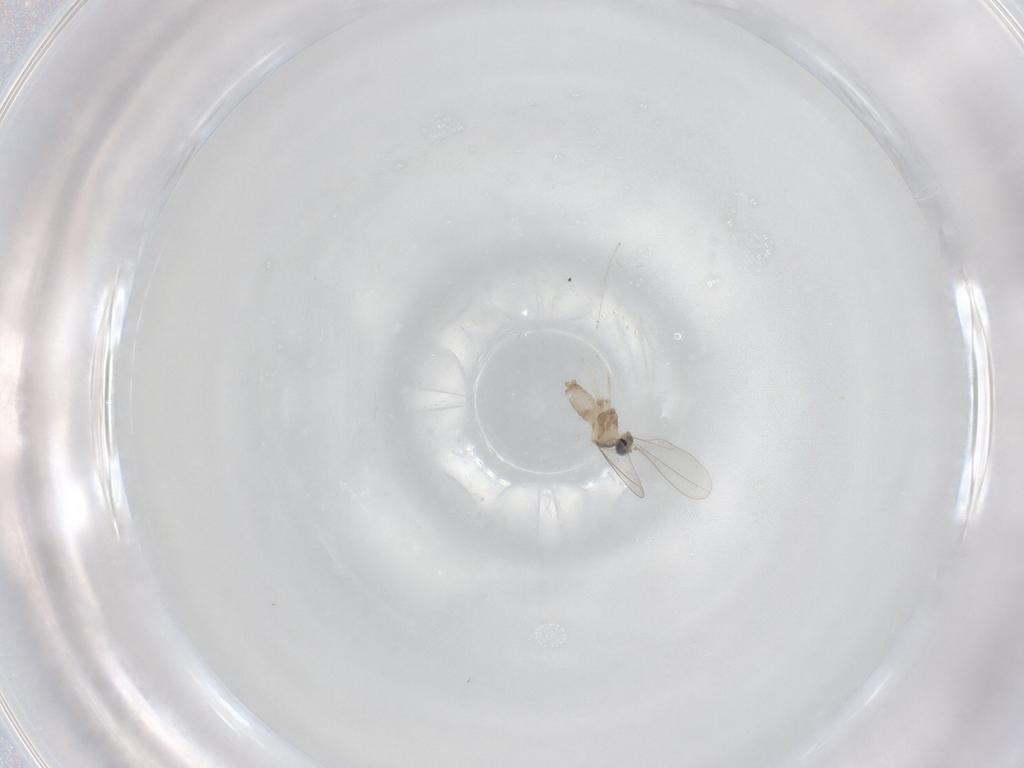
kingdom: Animalia
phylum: Arthropoda
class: Insecta
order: Diptera
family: Cecidomyiidae
